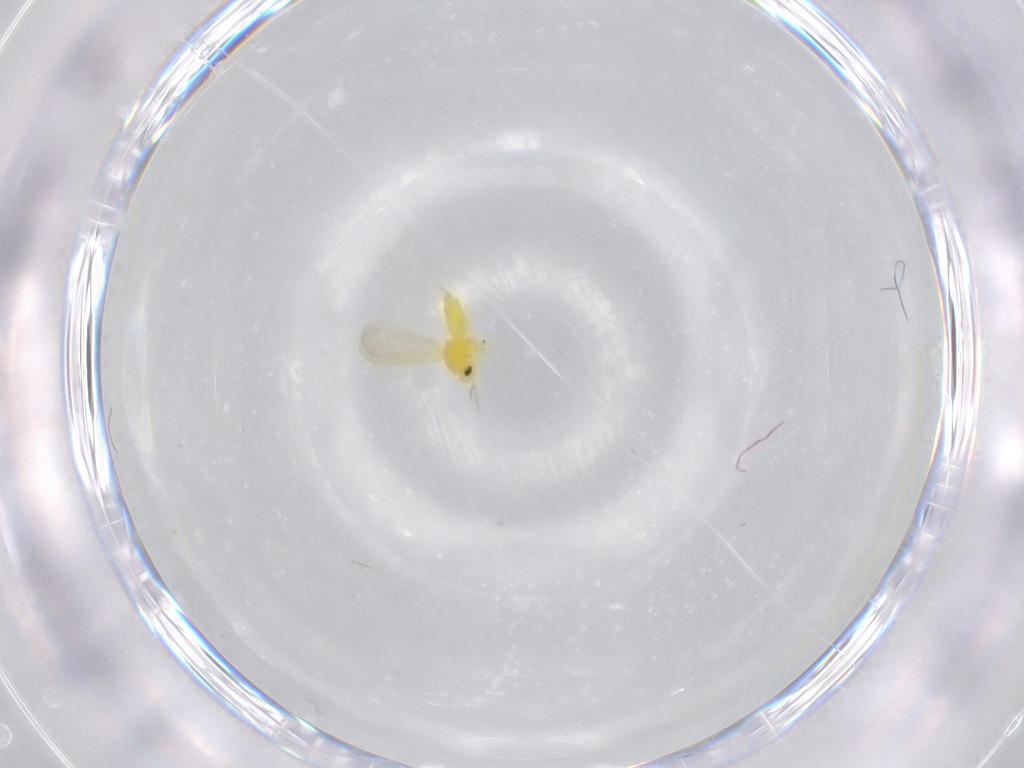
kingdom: Animalia
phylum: Arthropoda
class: Insecta
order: Hemiptera
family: Aleyrodidae
